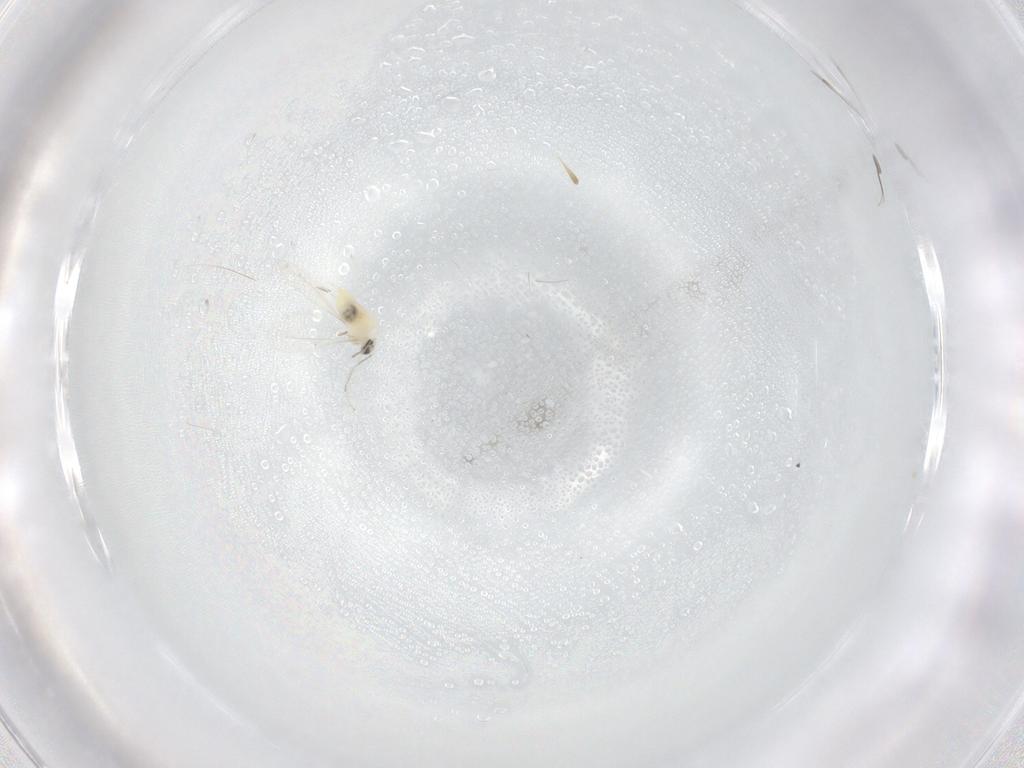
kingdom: Animalia
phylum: Arthropoda
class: Insecta
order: Diptera
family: Cecidomyiidae
